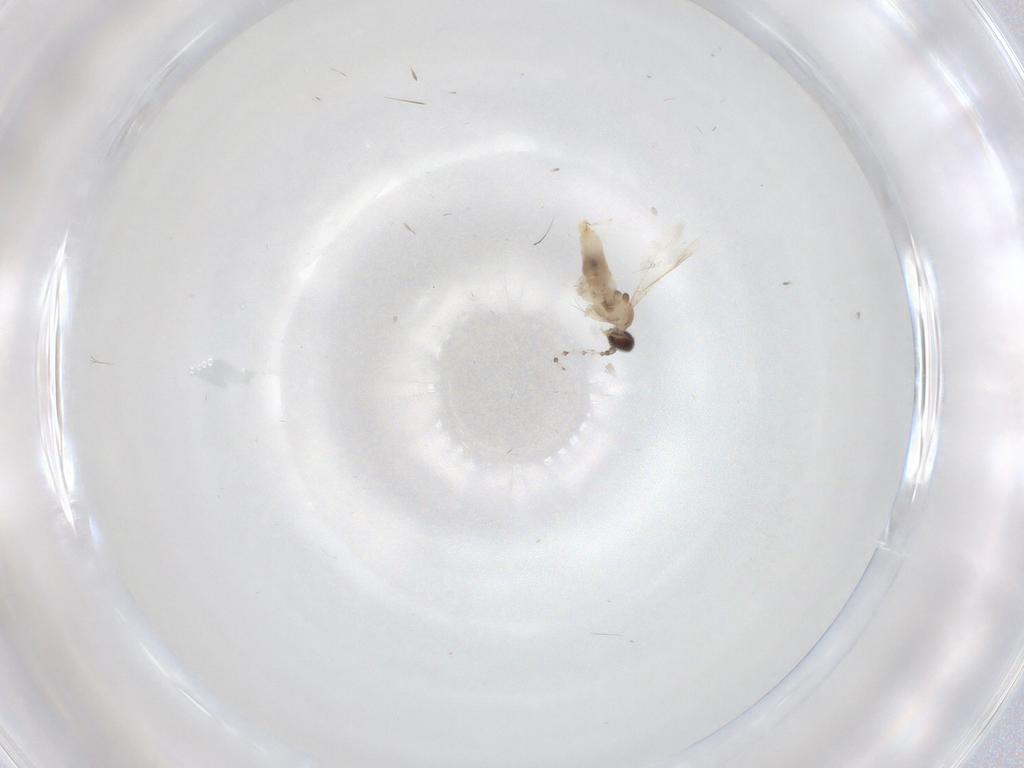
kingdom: Animalia
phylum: Arthropoda
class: Insecta
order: Diptera
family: Cecidomyiidae
